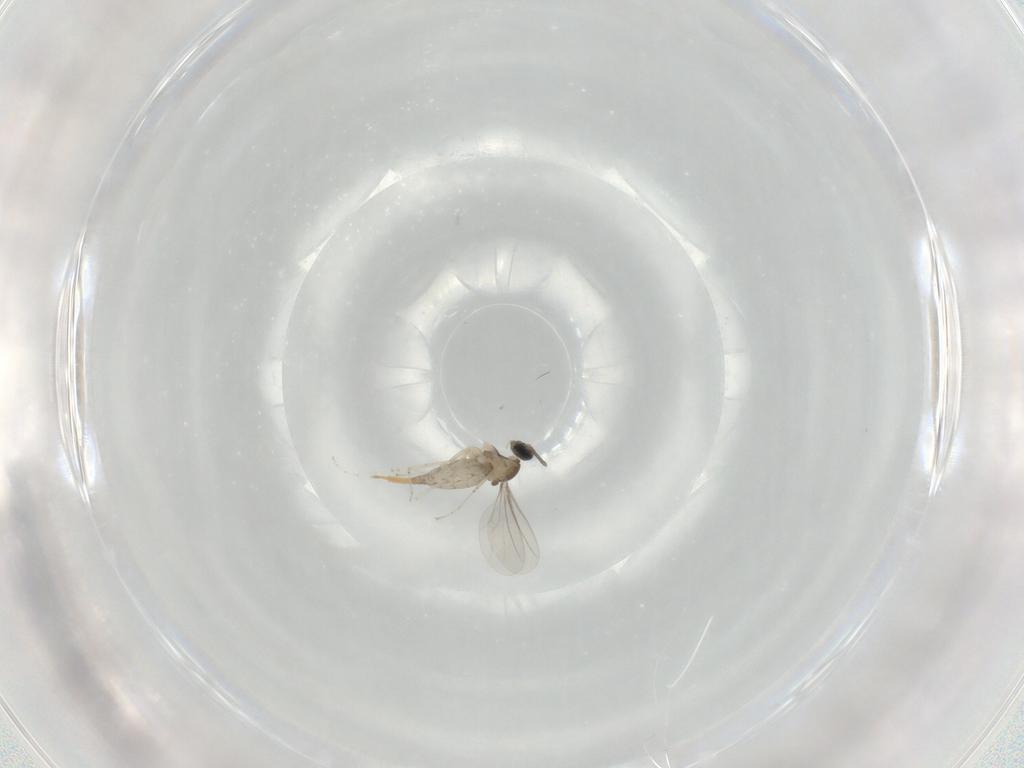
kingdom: Animalia
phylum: Arthropoda
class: Insecta
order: Diptera
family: Cecidomyiidae
